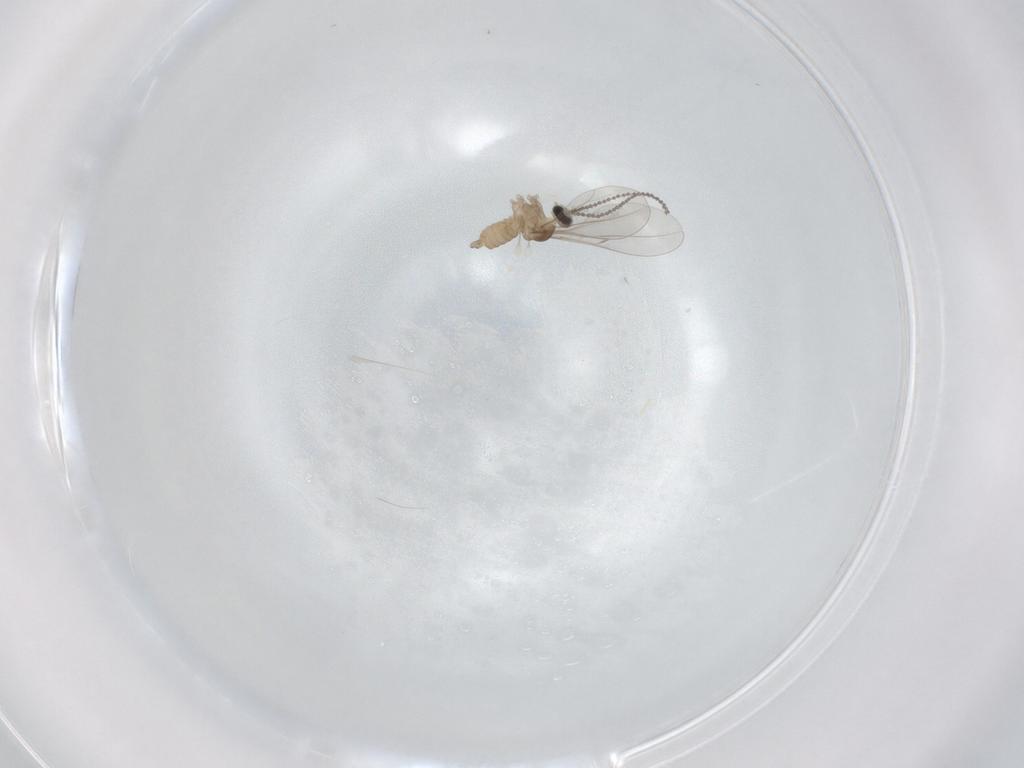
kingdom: Animalia
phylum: Arthropoda
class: Insecta
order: Diptera
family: Cecidomyiidae
